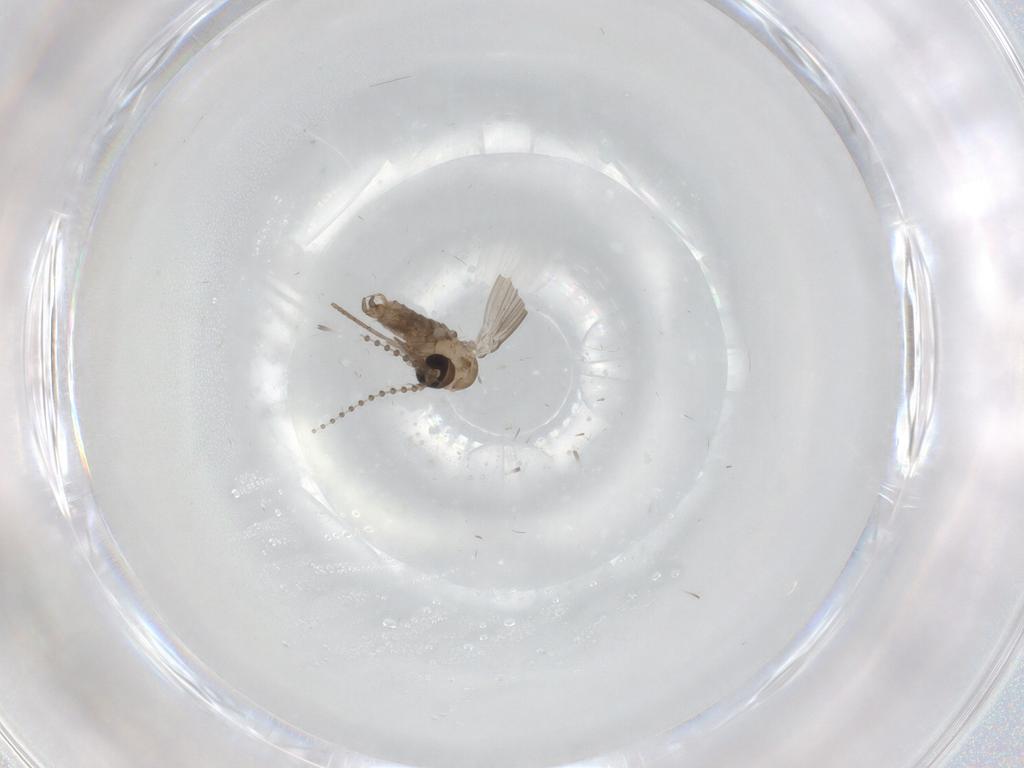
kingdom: Animalia
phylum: Arthropoda
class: Insecta
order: Diptera
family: Psychodidae
